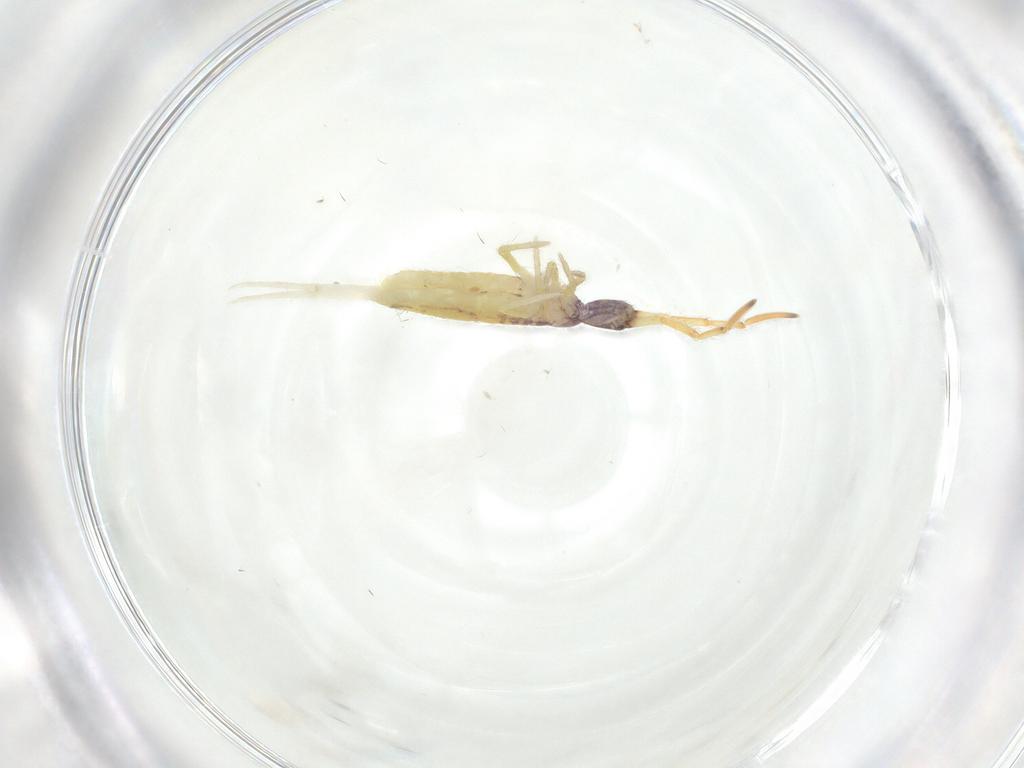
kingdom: Animalia
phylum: Arthropoda
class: Collembola
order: Entomobryomorpha
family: Entomobryidae
